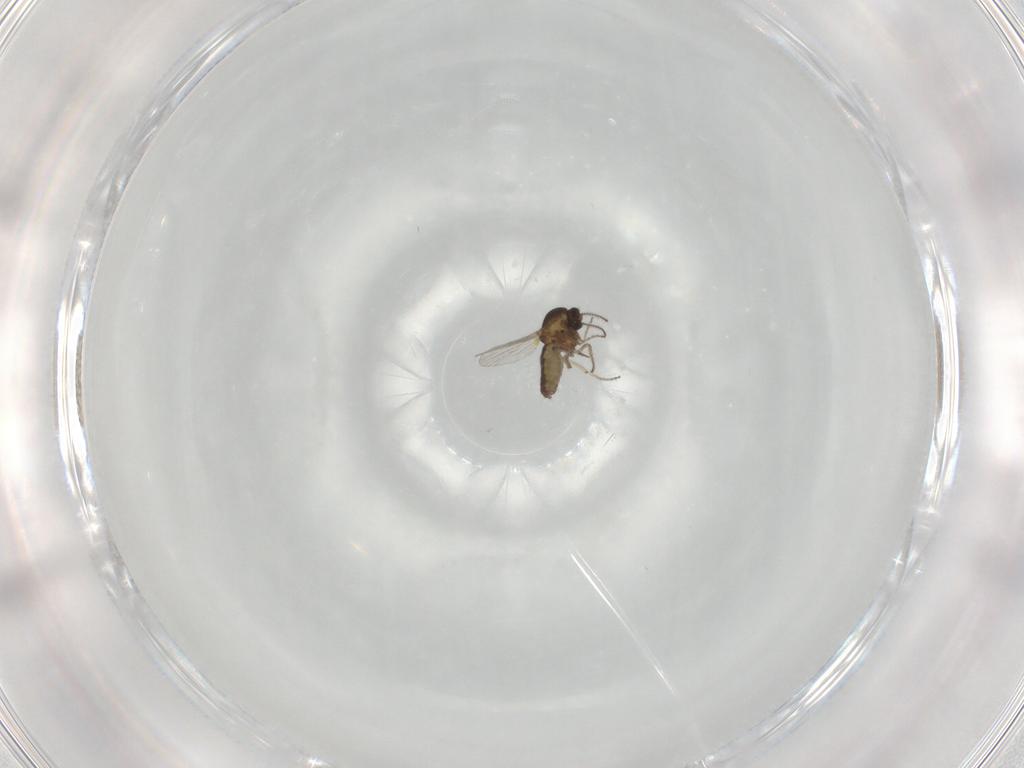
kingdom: Animalia
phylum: Arthropoda
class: Insecta
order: Diptera
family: Ceratopogonidae
